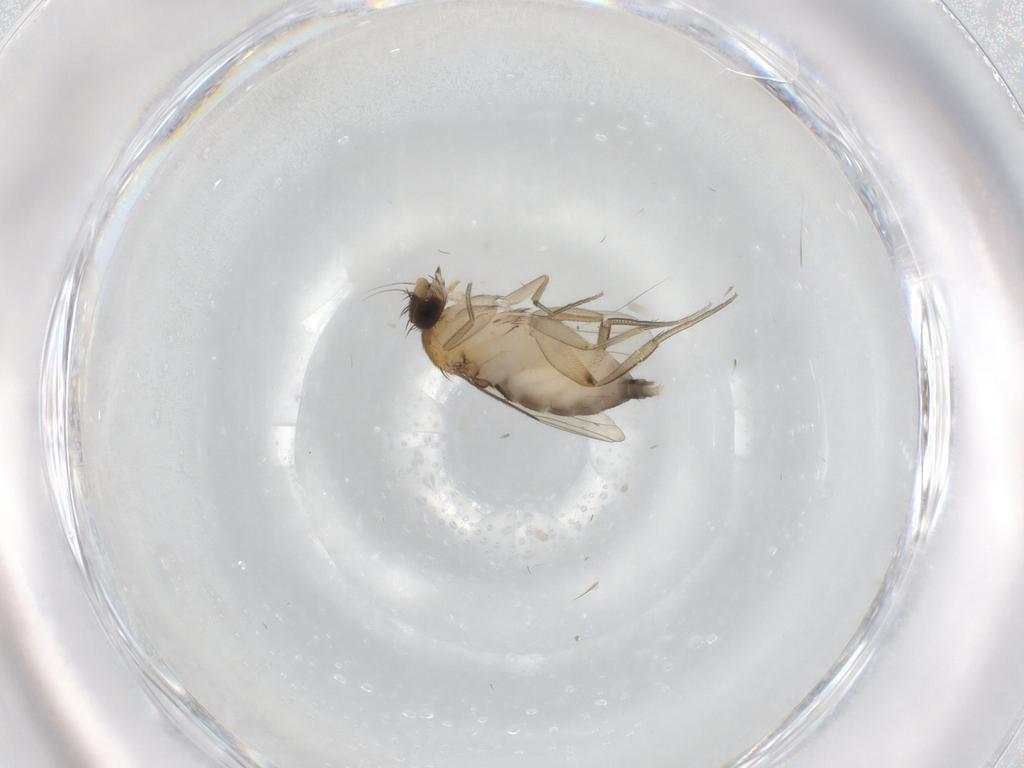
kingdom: Animalia
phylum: Arthropoda
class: Insecta
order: Diptera
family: Phoridae
